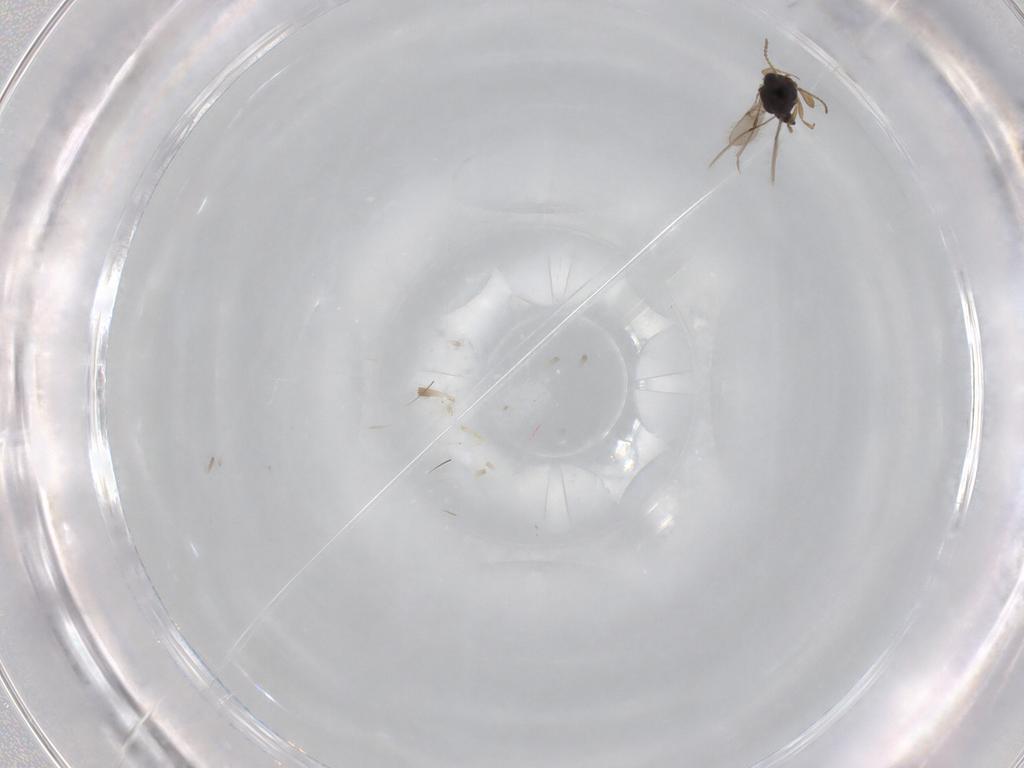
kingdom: Animalia
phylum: Arthropoda
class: Insecta
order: Hymenoptera
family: Scelionidae
